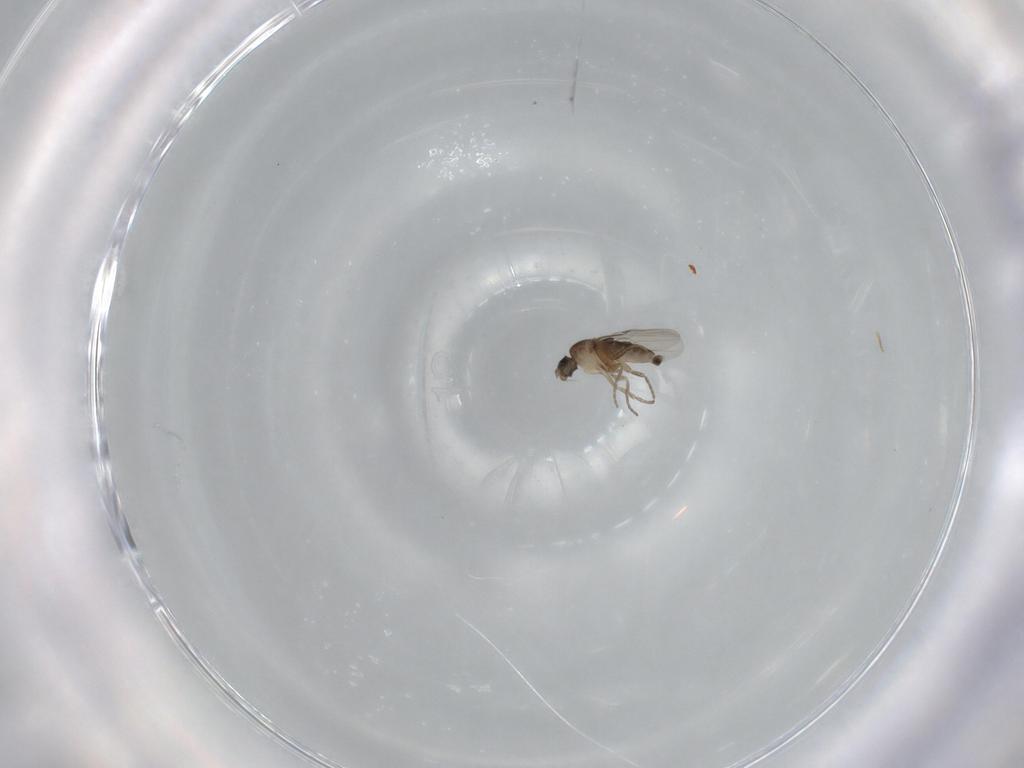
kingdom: Animalia
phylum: Arthropoda
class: Insecta
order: Diptera
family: Phoridae
